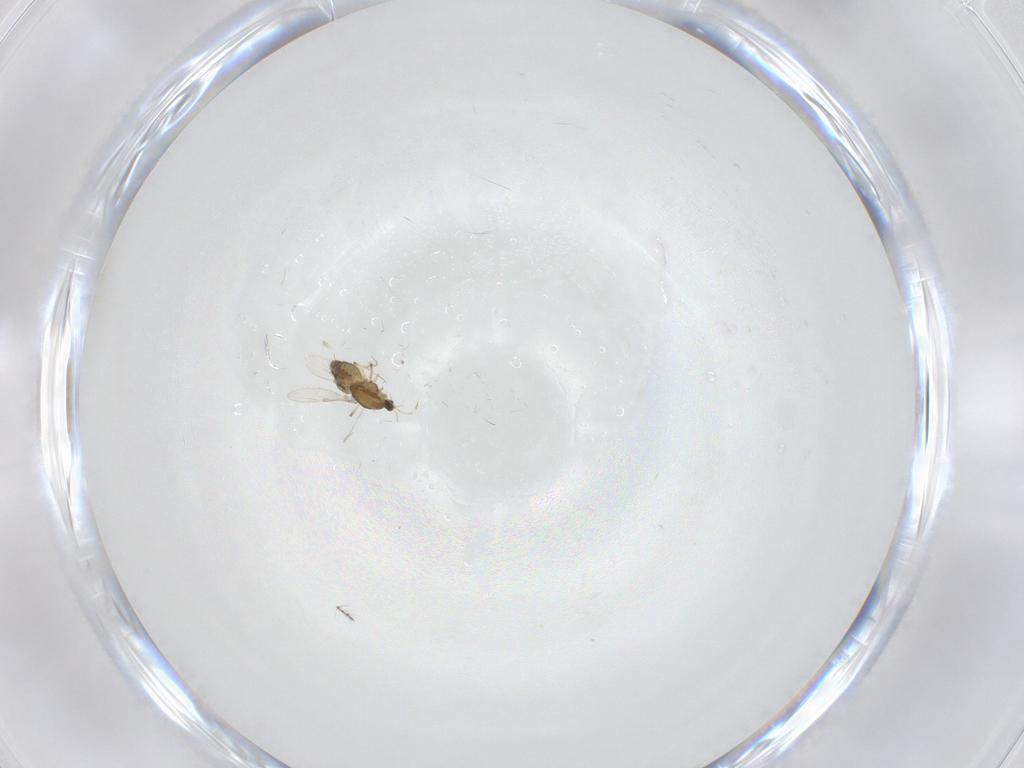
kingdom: Animalia
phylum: Arthropoda
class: Insecta
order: Diptera
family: Chironomidae
